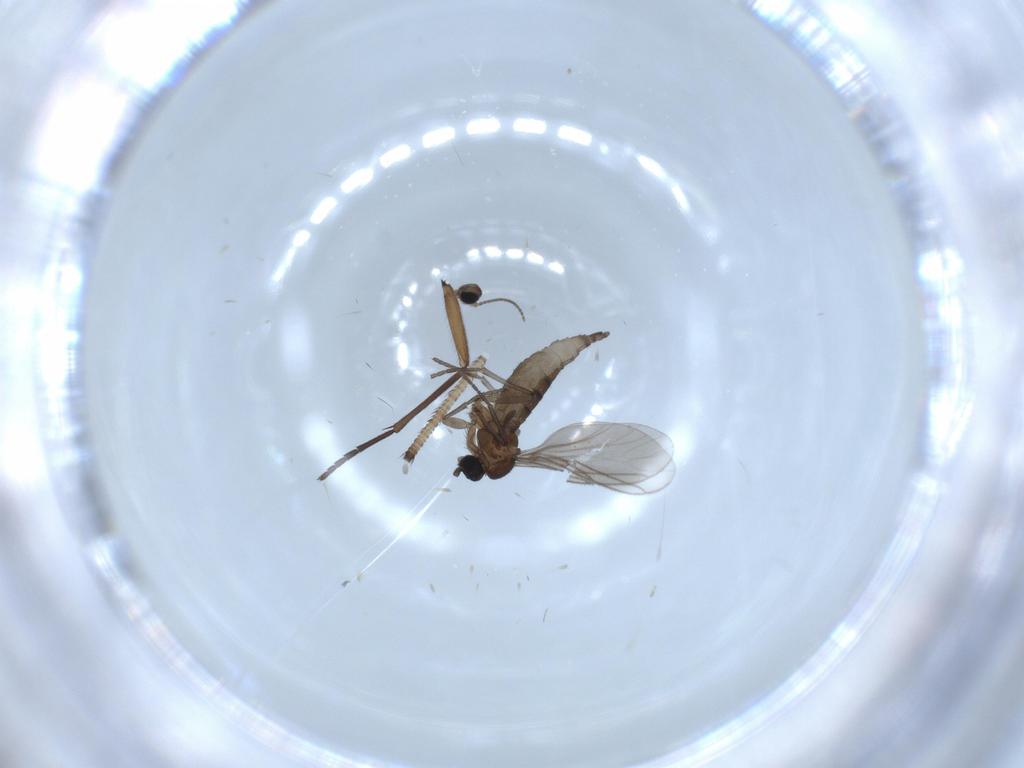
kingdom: Animalia
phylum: Arthropoda
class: Insecta
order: Diptera
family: Sciaridae
